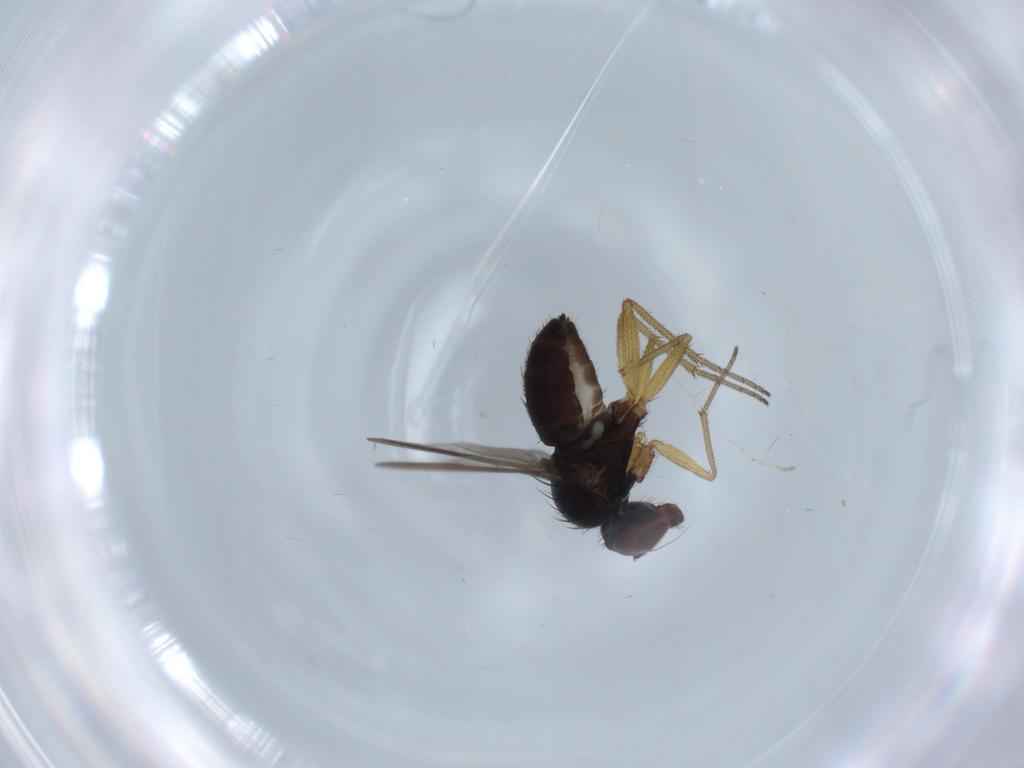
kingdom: Animalia
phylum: Arthropoda
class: Insecta
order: Diptera
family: Dolichopodidae
